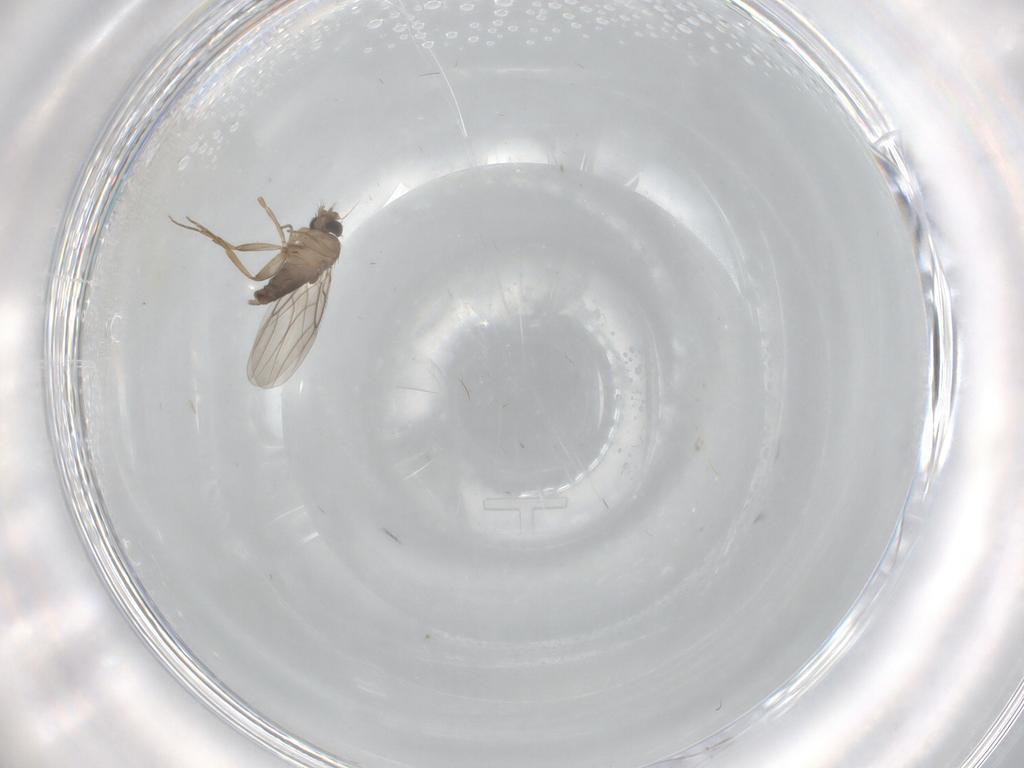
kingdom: Animalia
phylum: Arthropoda
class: Insecta
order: Diptera
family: Phoridae
